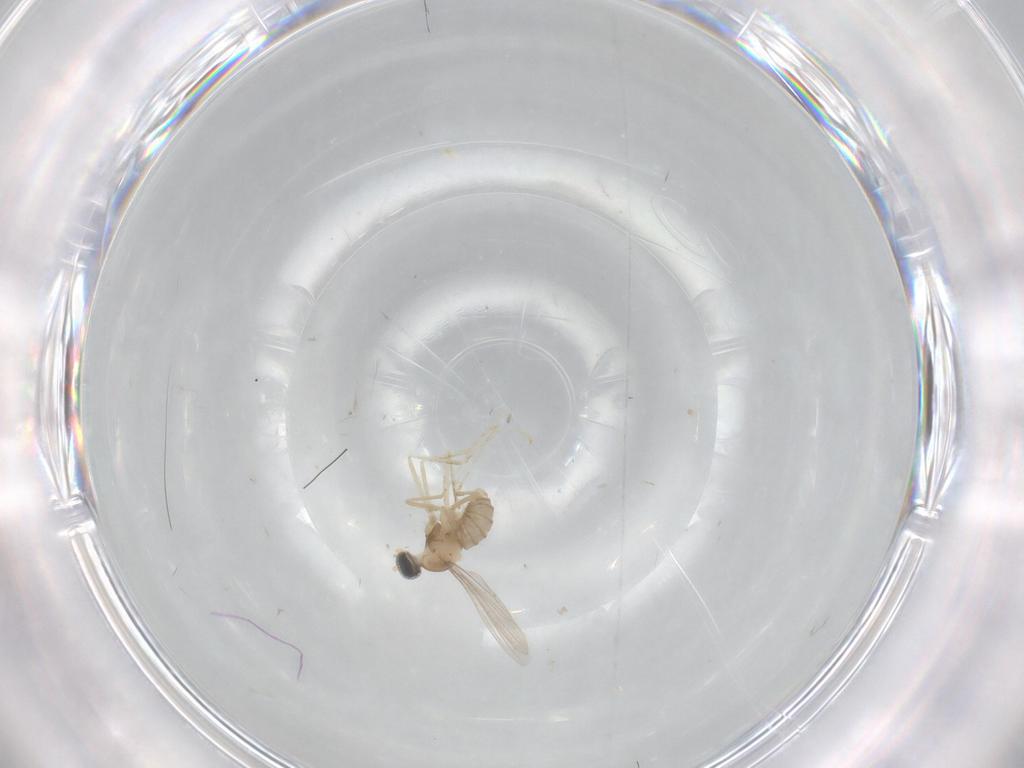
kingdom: Animalia
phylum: Arthropoda
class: Insecta
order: Diptera
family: Cecidomyiidae
